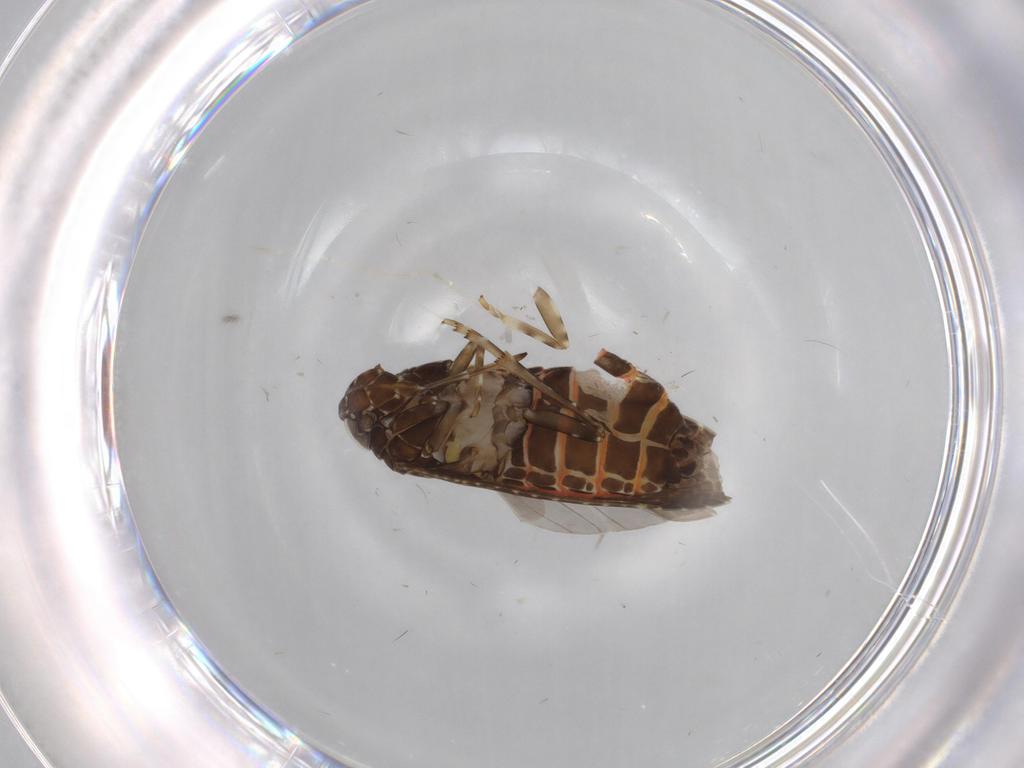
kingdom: Animalia
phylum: Arthropoda
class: Insecta
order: Hemiptera
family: Achilidae
